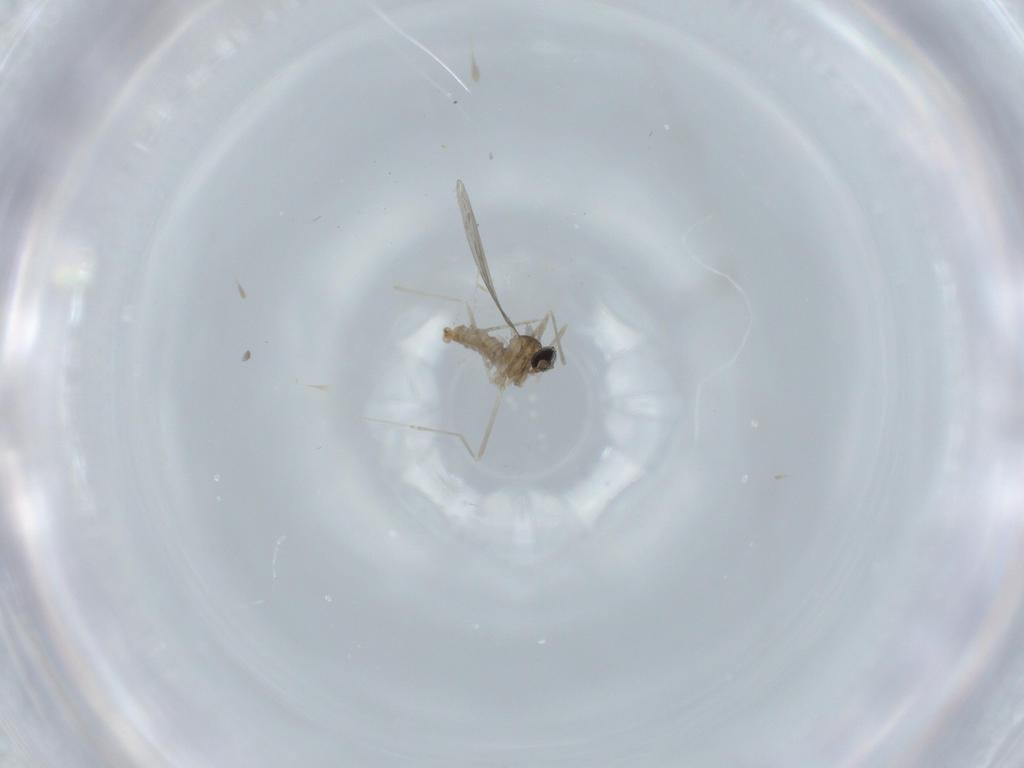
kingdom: Animalia
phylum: Arthropoda
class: Insecta
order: Diptera
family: Cecidomyiidae
